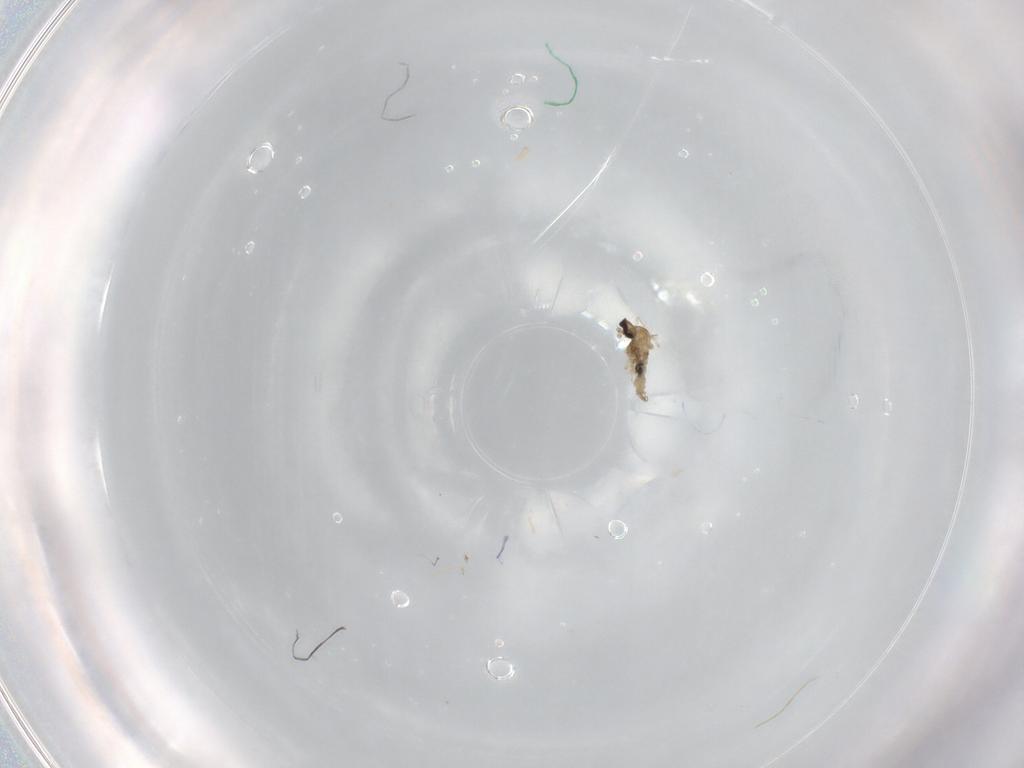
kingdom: Animalia
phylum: Arthropoda
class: Insecta
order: Diptera
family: Cecidomyiidae
